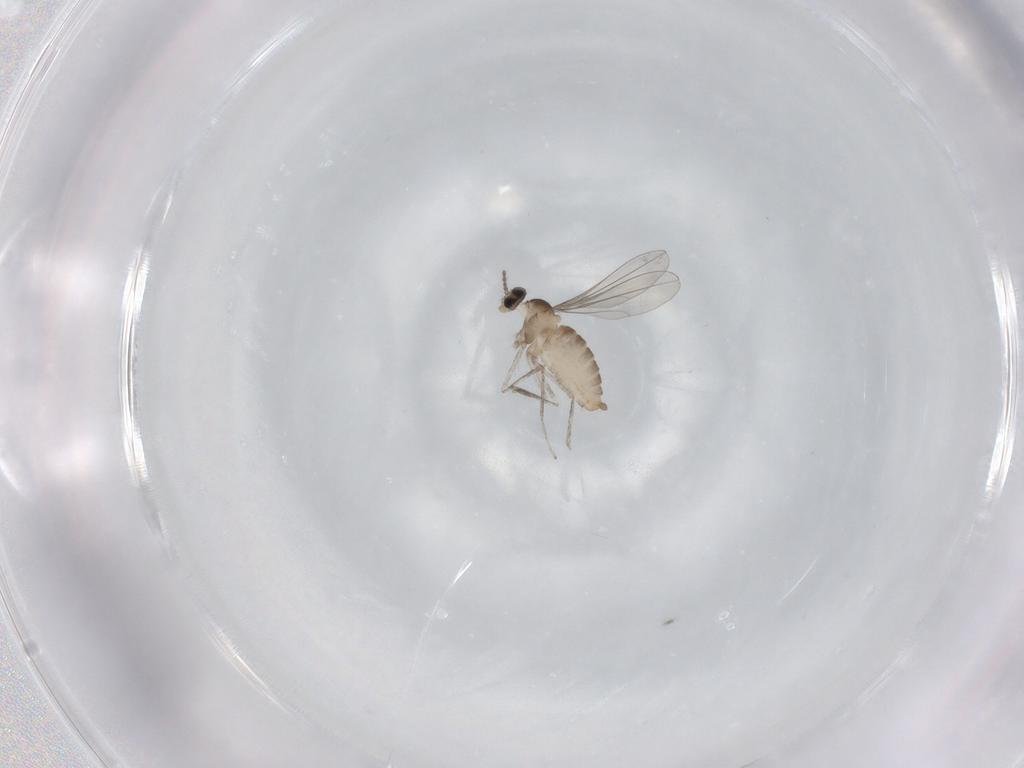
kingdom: Animalia
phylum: Arthropoda
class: Insecta
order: Diptera
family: Cecidomyiidae
